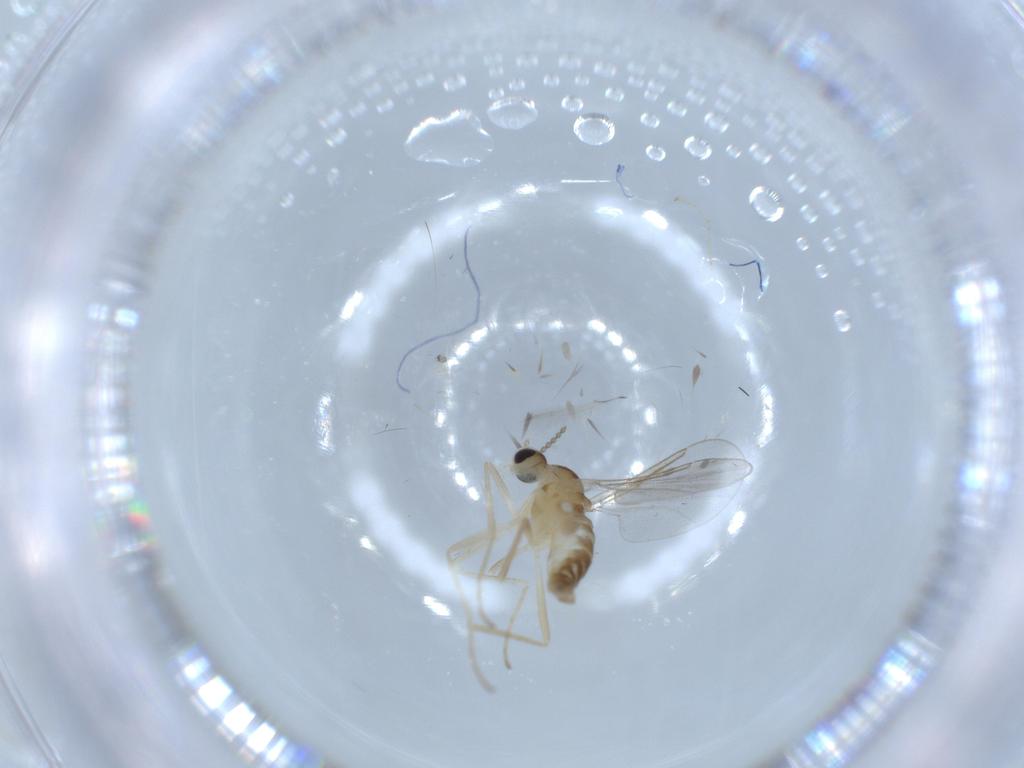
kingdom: Animalia
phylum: Arthropoda
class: Insecta
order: Diptera
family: Cecidomyiidae
